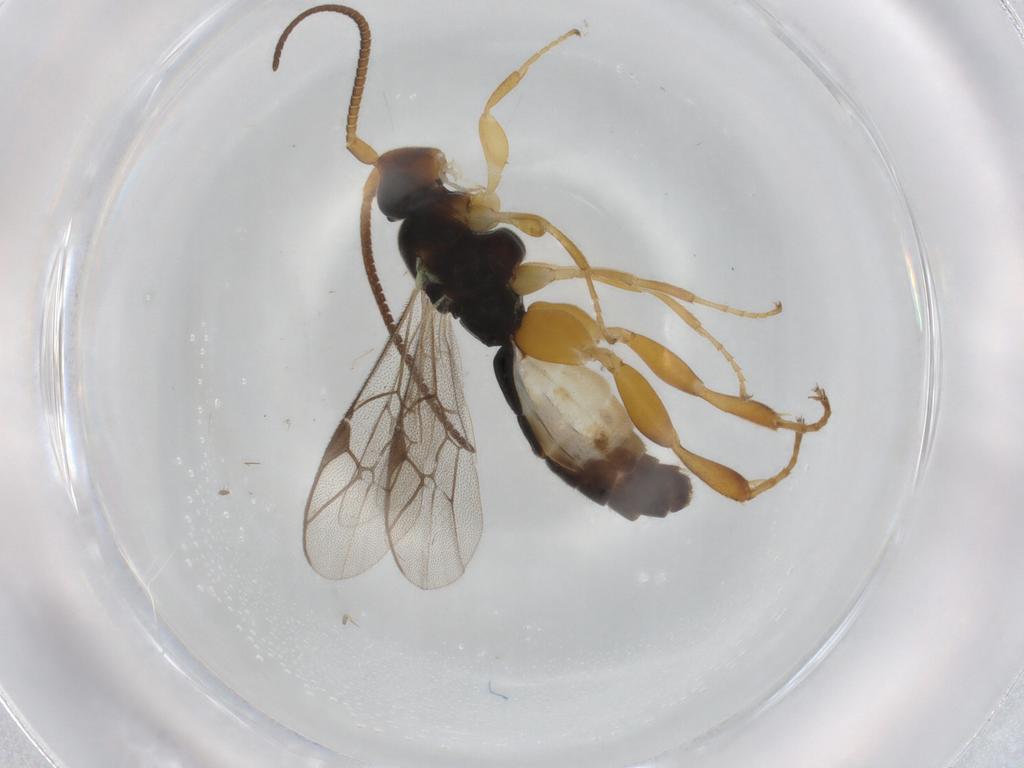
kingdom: Animalia
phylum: Arthropoda
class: Insecta
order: Hymenoptera
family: Ichneumonidae
